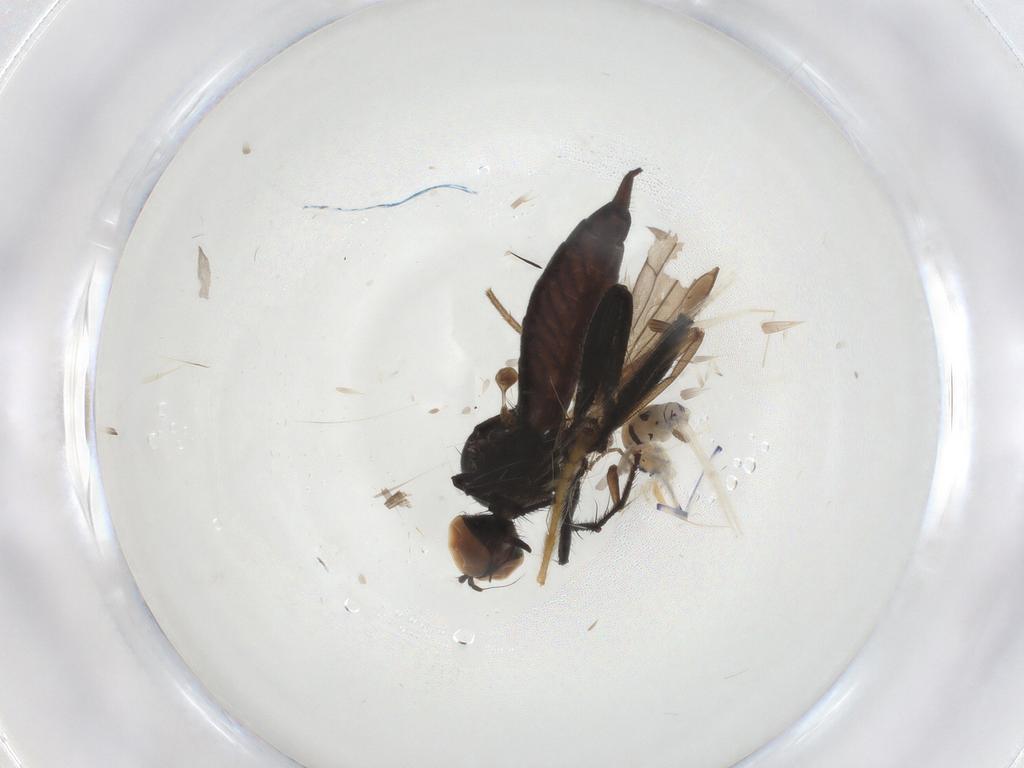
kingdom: Animalia
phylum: Arthropoda
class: Insecta
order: Diptera
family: Hybotidae
